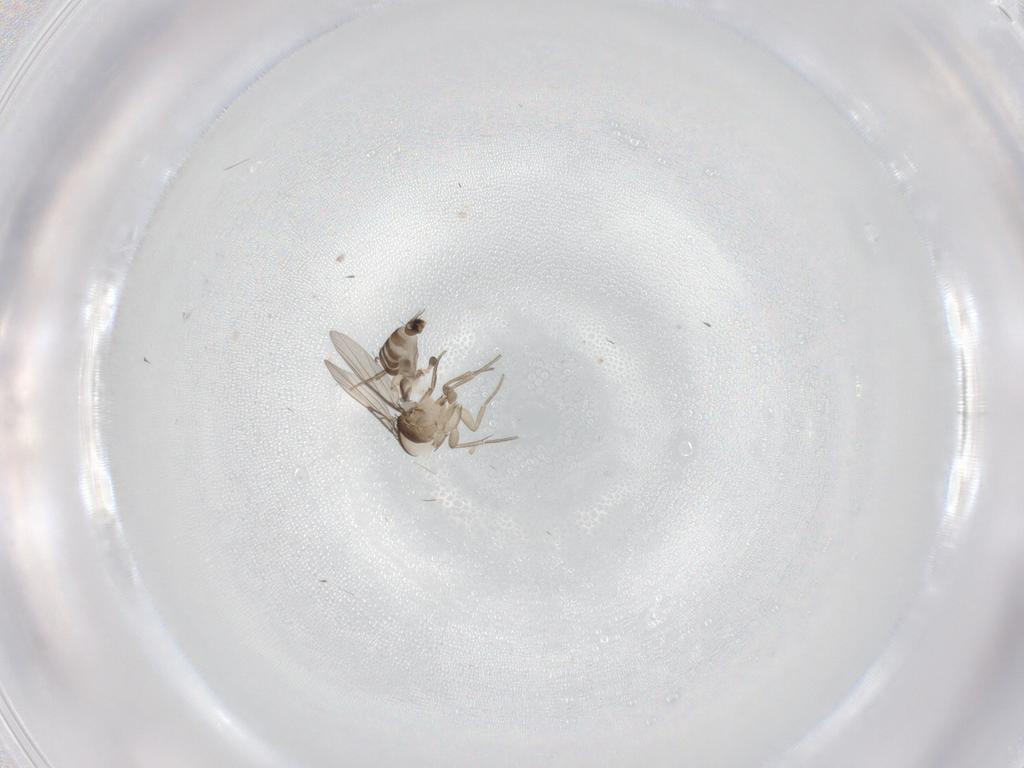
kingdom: Animalia
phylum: Arthropoda
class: Insecta
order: Diptera
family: Phoridae
